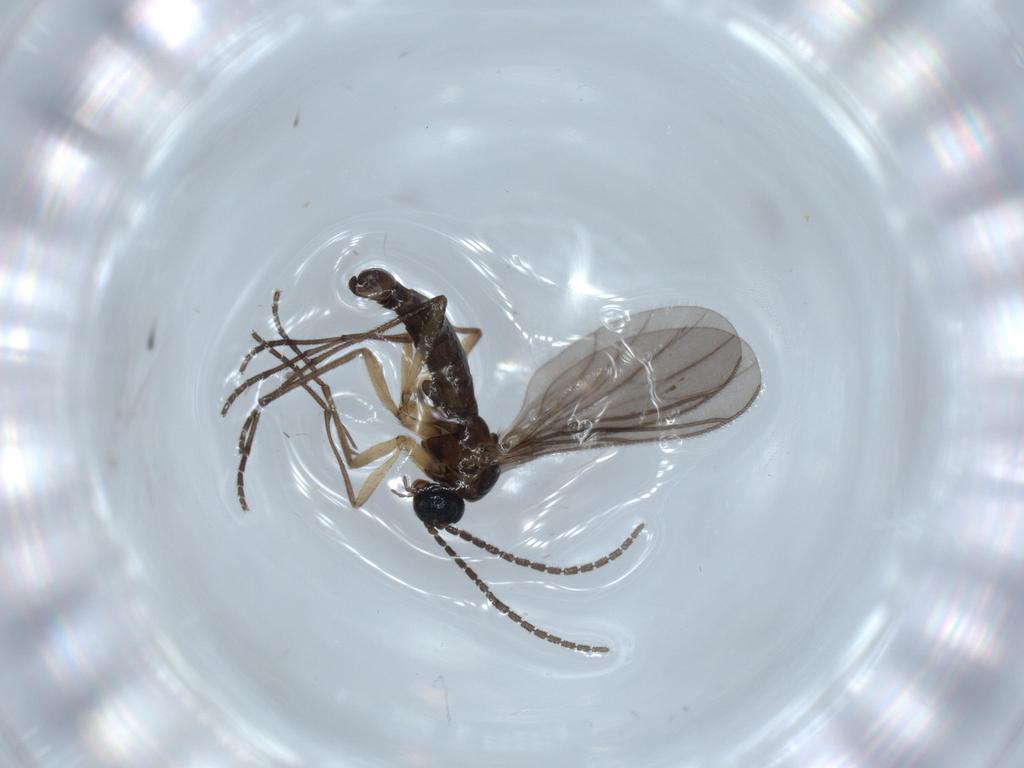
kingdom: Animalia
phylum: Arthropoda
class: Insecta
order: Diptera
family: Sciaridae
